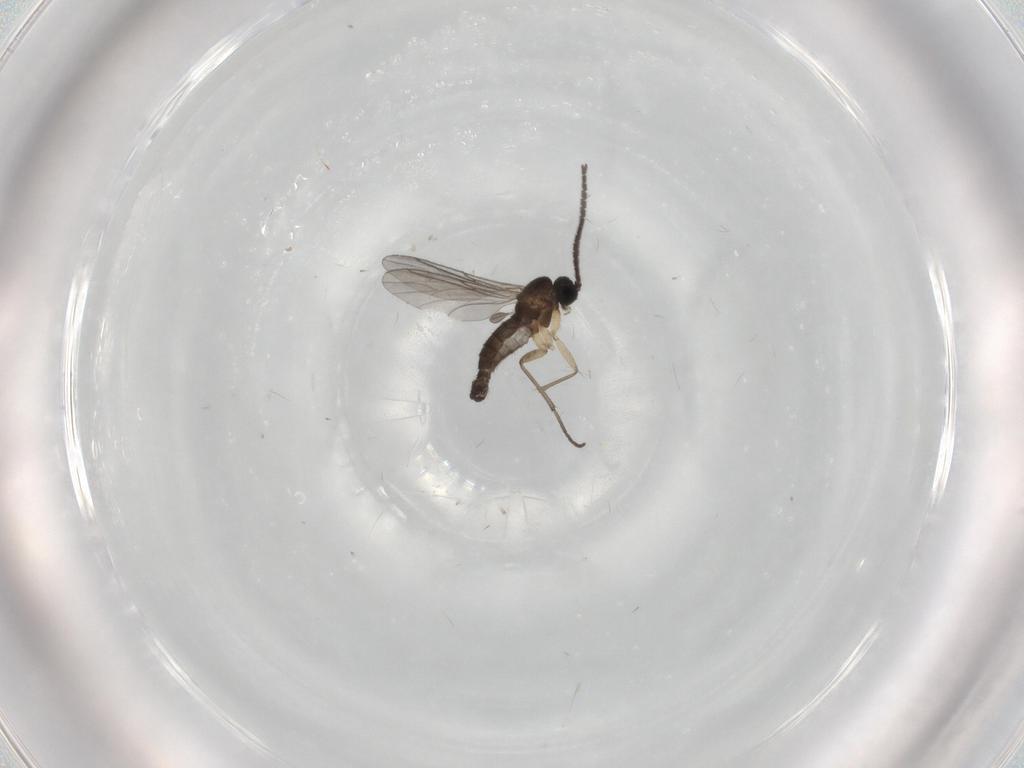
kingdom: Animalia
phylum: Arthropoda
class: Insecta
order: Diptera
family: Sciaridae
